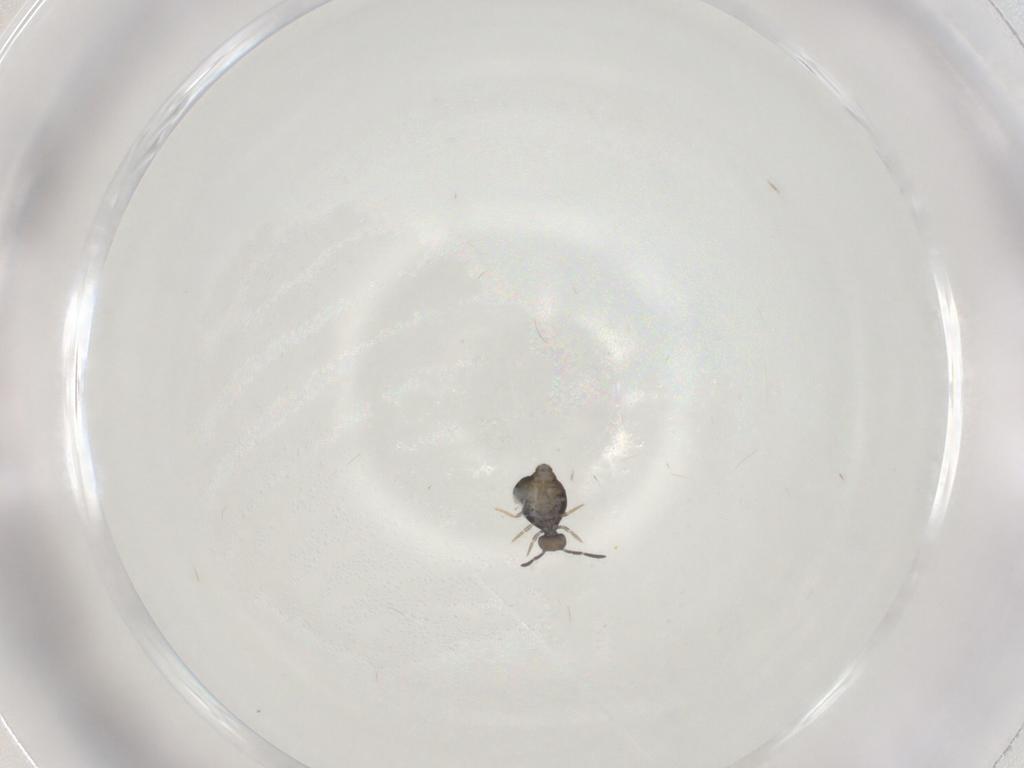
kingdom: Animalia
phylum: Arthropoda
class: Collembola
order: Symphypleona
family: Katiannidae
